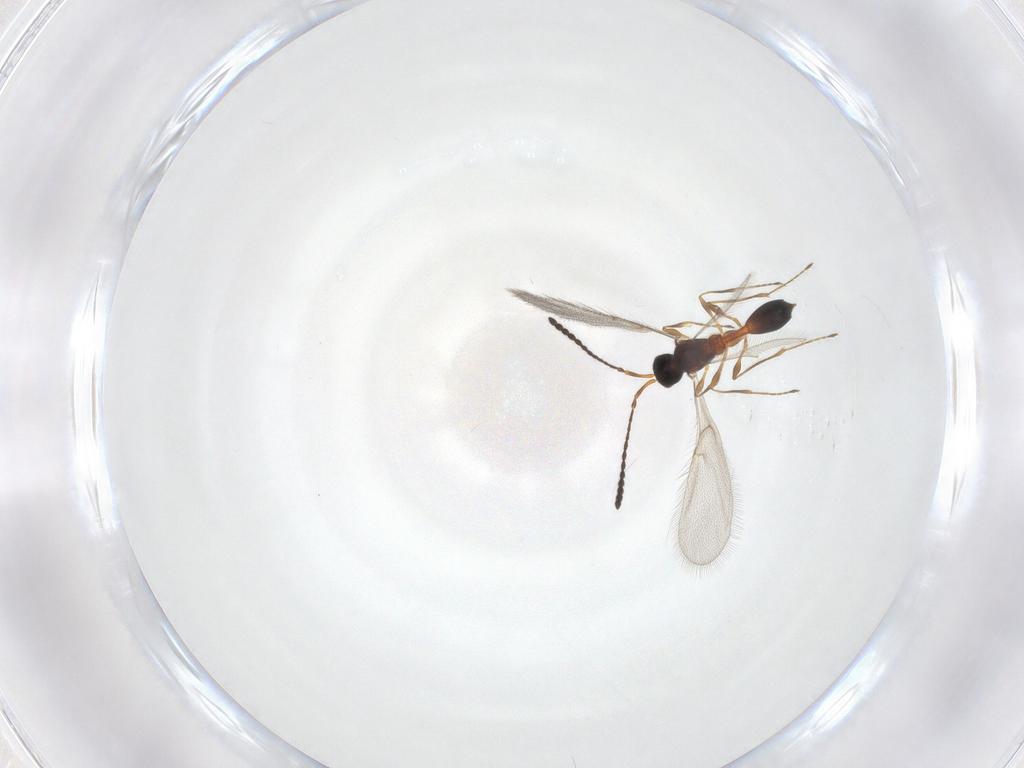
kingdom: Animalia
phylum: Arthropoda
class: Insecta
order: Hymenoptera
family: Diapriidae
